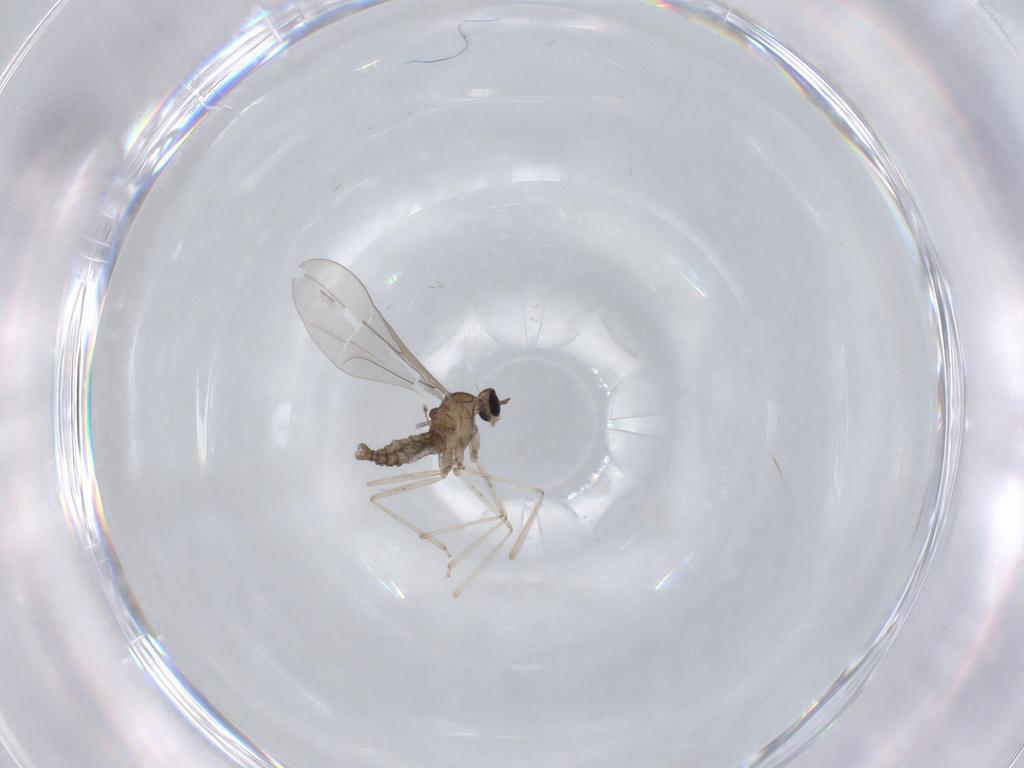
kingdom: Animalia
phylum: Arthropoda
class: Insecta
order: Diptera
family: Cecidomyiidae
